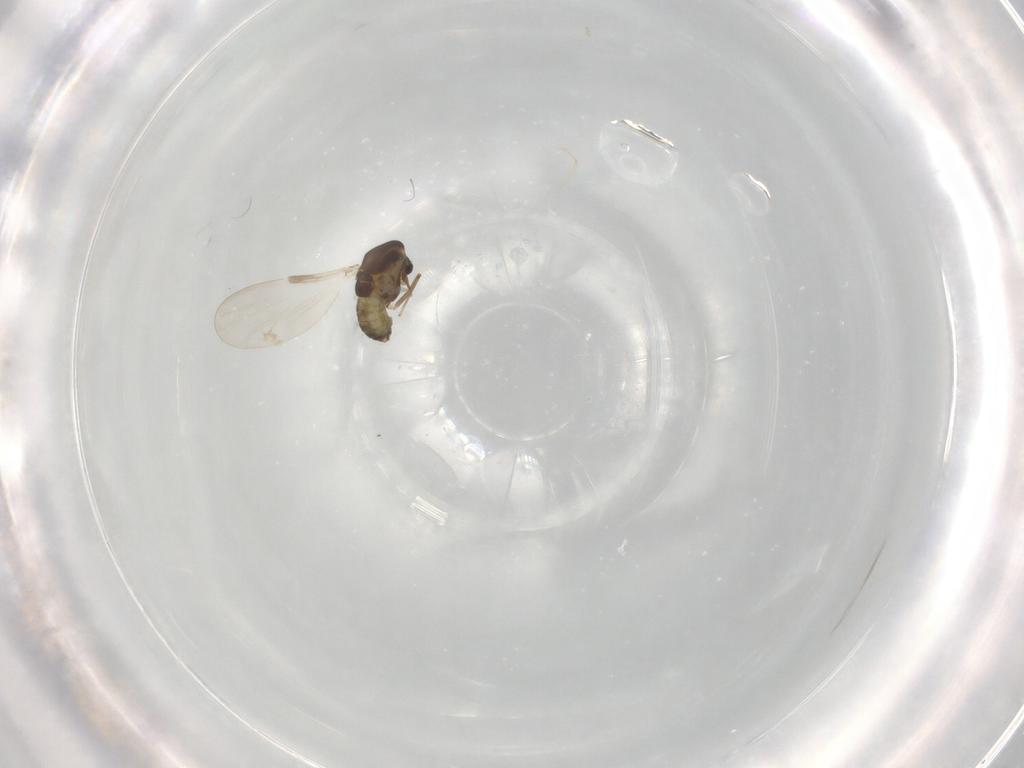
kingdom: Animalia
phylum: Arthropoda
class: Insecta
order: Diptera
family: Chironomidae
